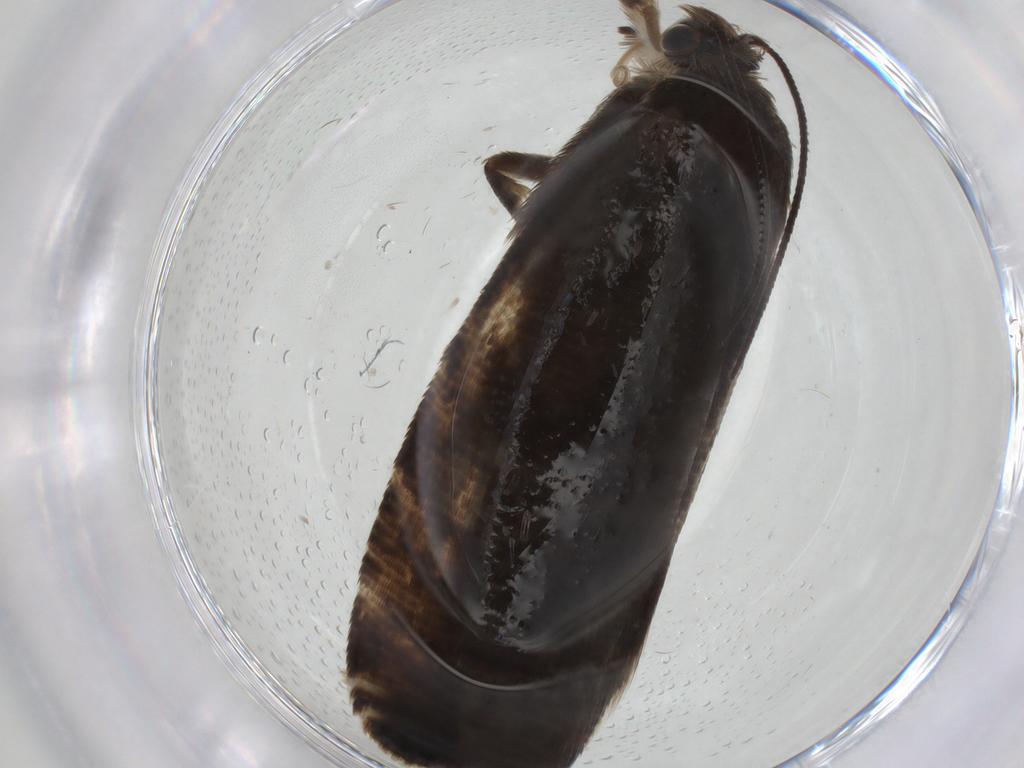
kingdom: Animalia
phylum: Arthropoda
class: Insecta
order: Lepidoptera
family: Tortricidae
